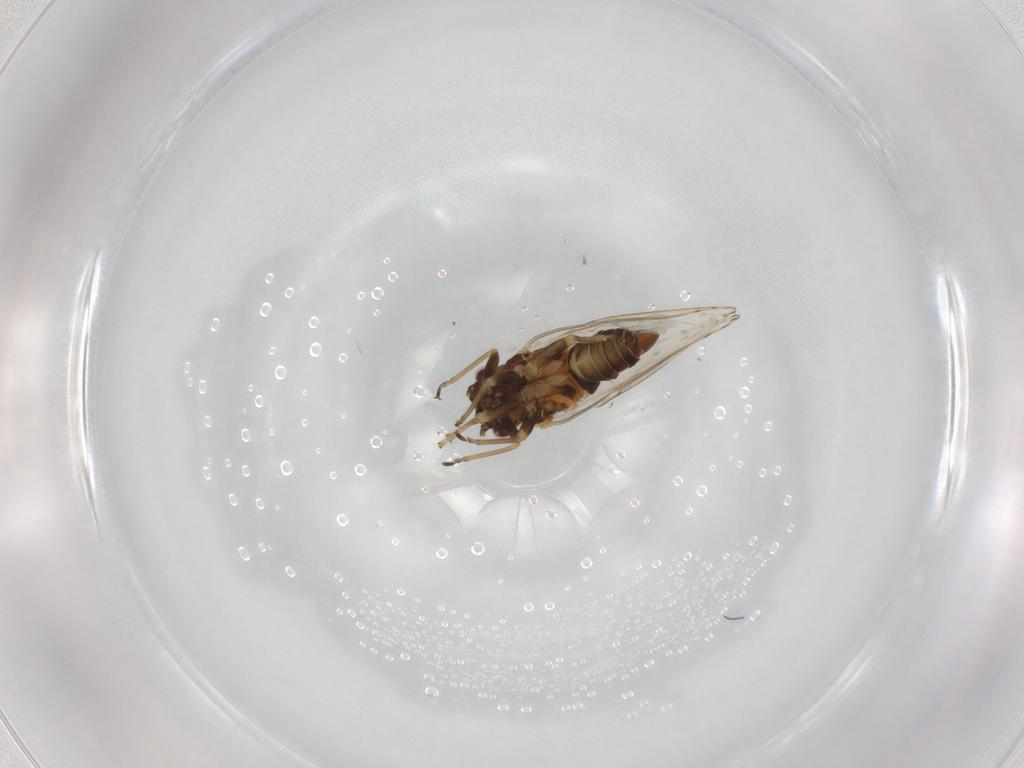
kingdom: Animalia
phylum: Arthropoda
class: Insecta
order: Hemiptera
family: Psyllidae
